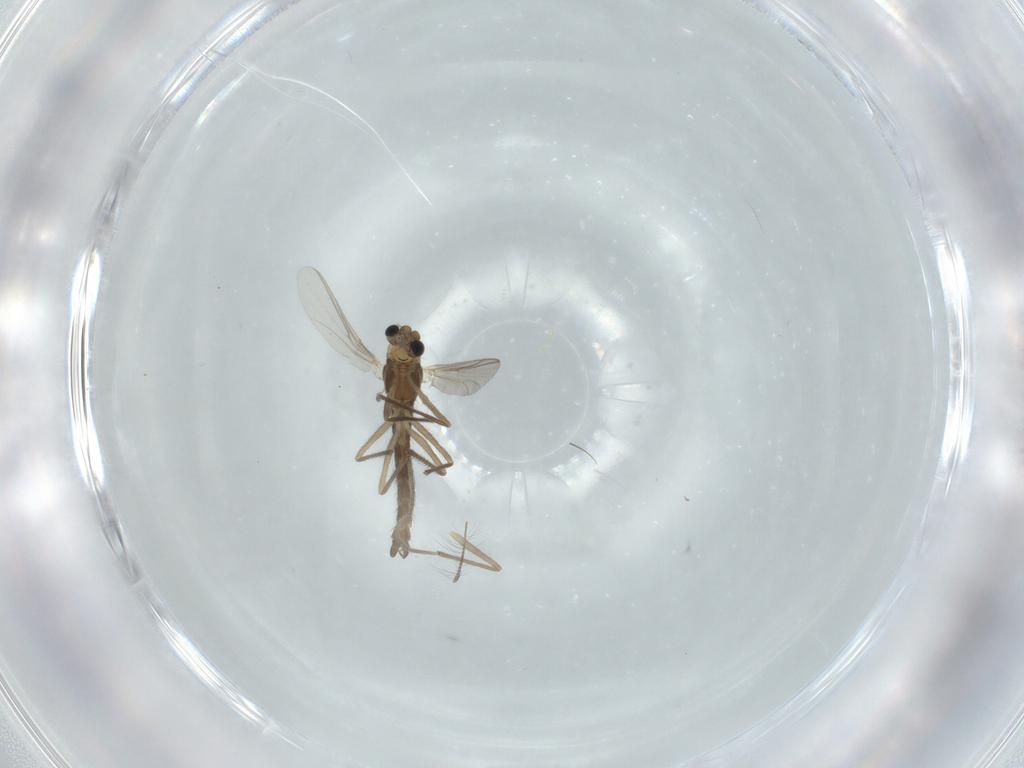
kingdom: Animalia
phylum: Arthropoda
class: Insecta
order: Diptera
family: Chironomidae
